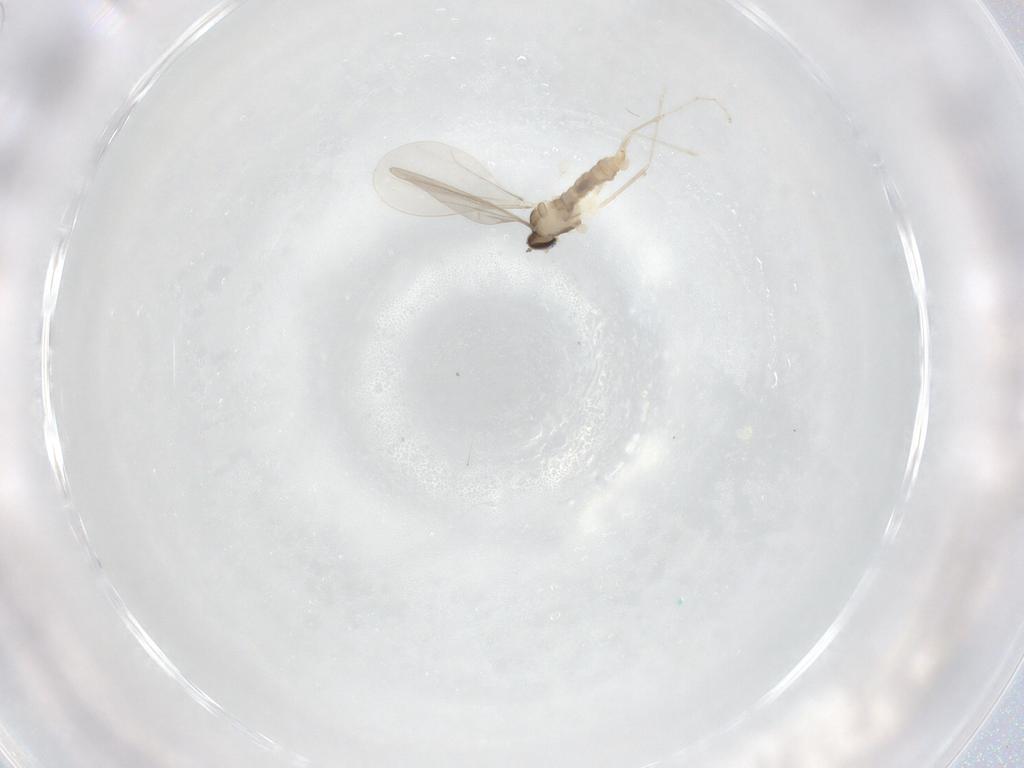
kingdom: Animalia
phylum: Arthropoda
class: Insecta
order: Diptera
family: Cecidomyiidae
